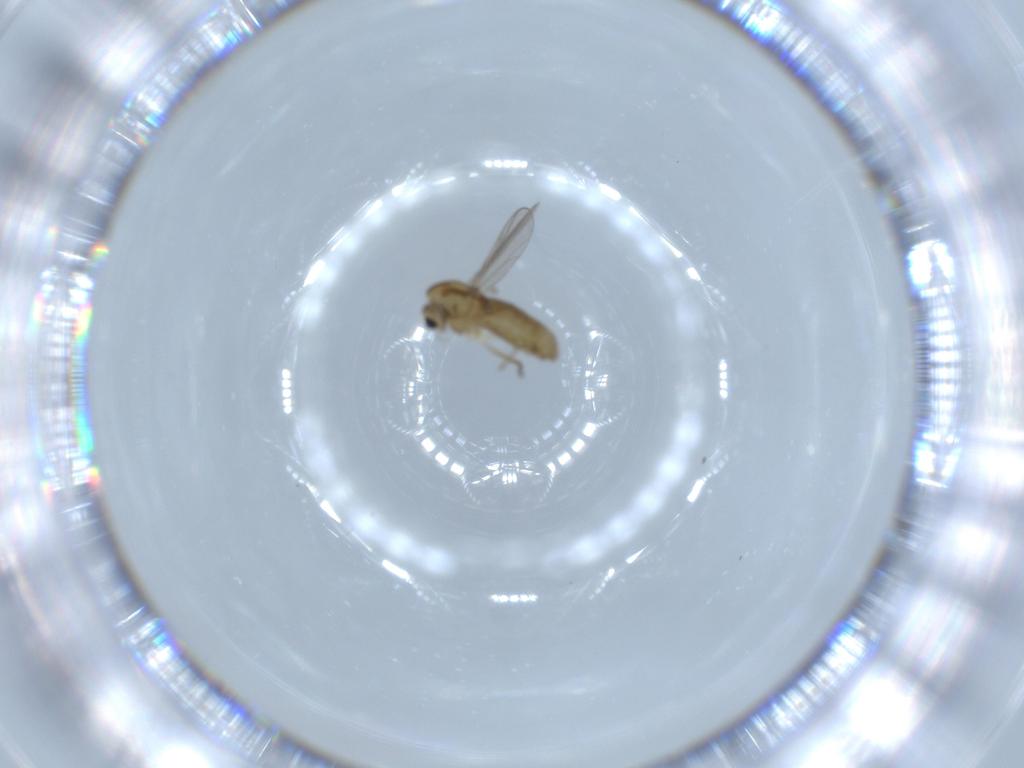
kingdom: Animalia
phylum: Arthropoda
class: Insecta
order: Diptera
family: Chironomidae
